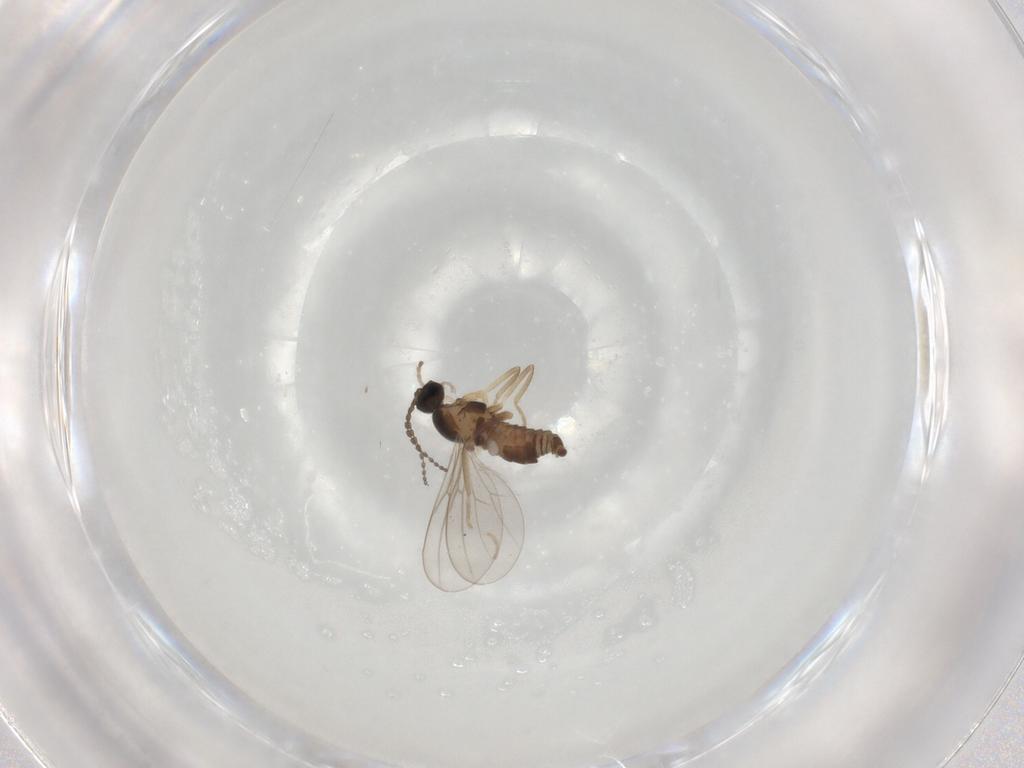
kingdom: Animalia
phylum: Arthropoda
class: Insecta
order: Diptera
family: Cecidomyiidae
